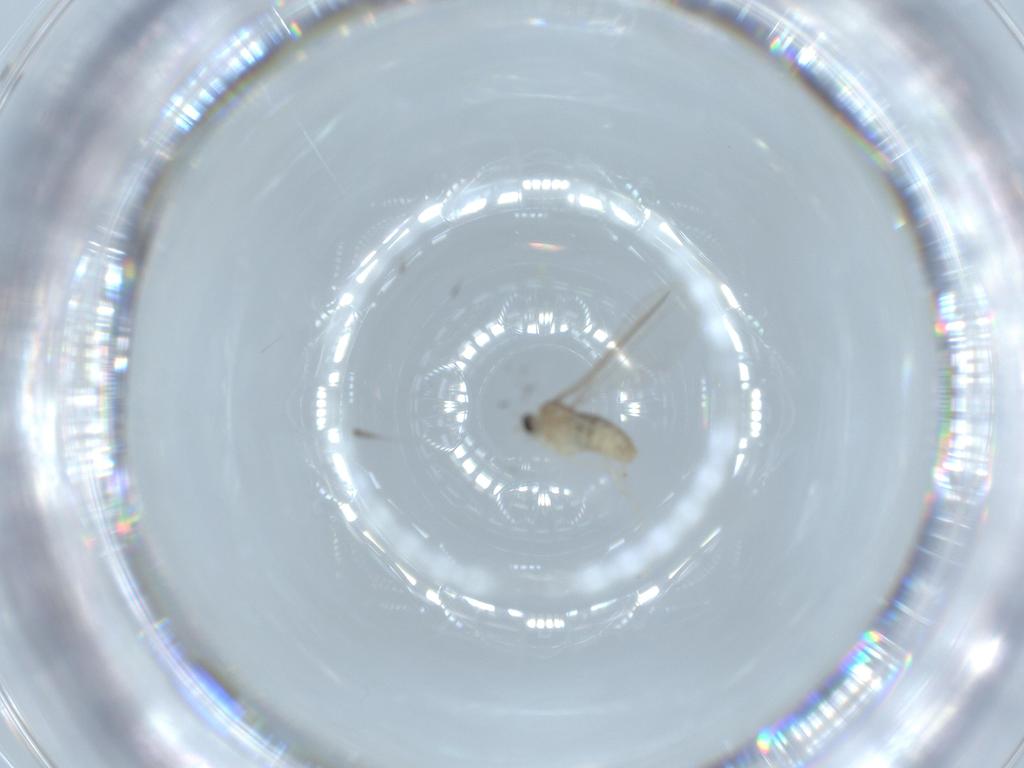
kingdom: Animalia
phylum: Arthropoda
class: Insecta
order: Diptera
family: Cecidomyiidae
